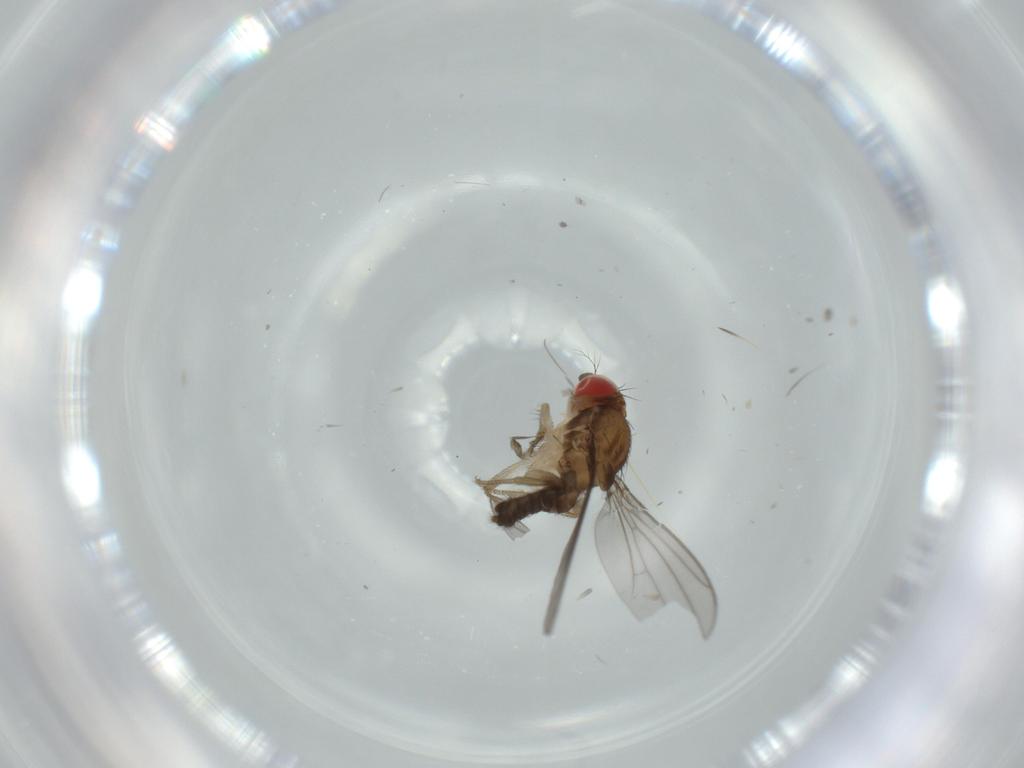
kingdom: Animalia
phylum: Arthropoda
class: Insecta
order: Diptera
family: Drosophilidae
